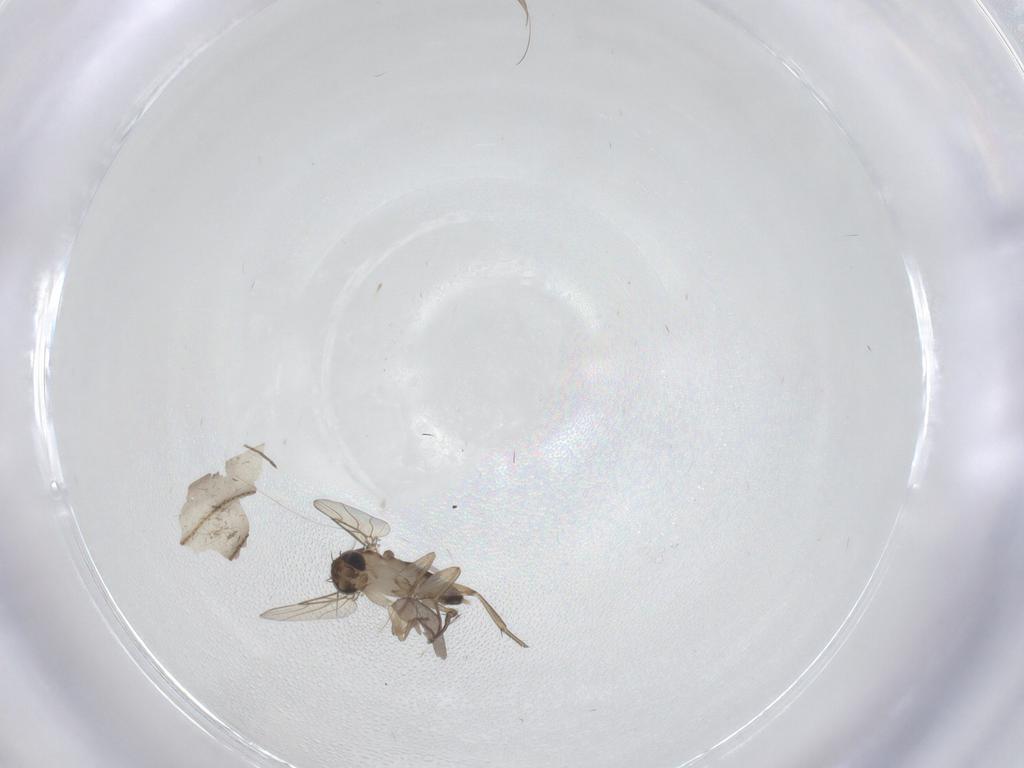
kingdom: Animalia
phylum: Arthropoda
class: Insecta
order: Diptera
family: Phoridae
